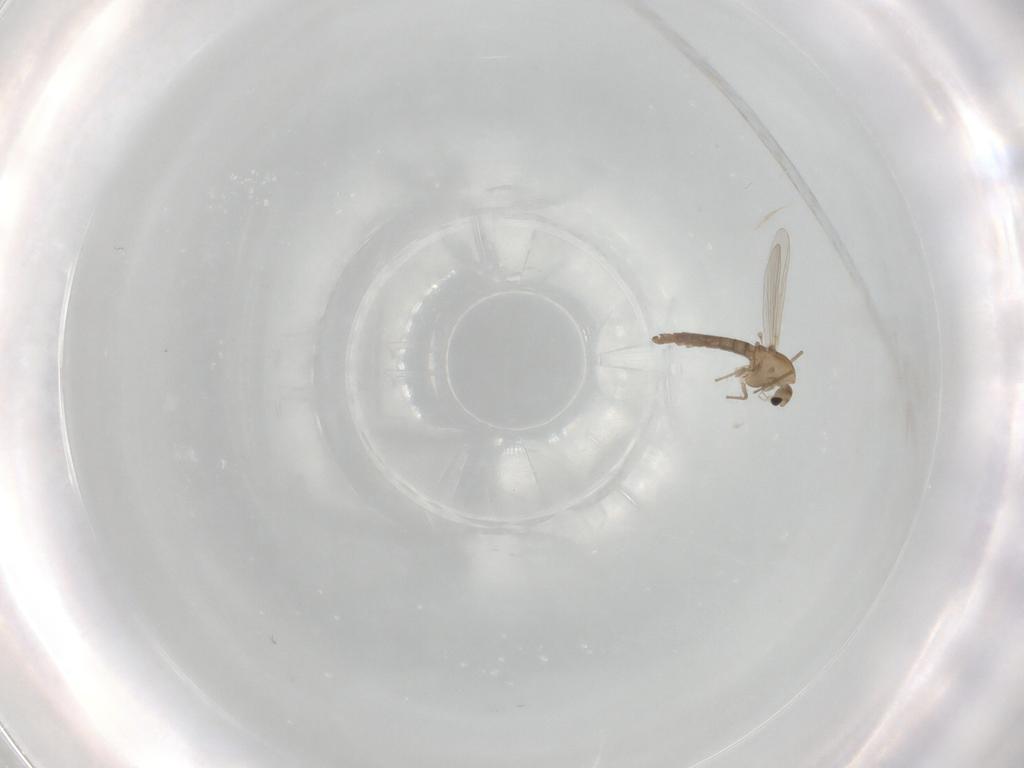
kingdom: Animalia
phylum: Arthropoda
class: Insecta
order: Diptera
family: Chironomidae
